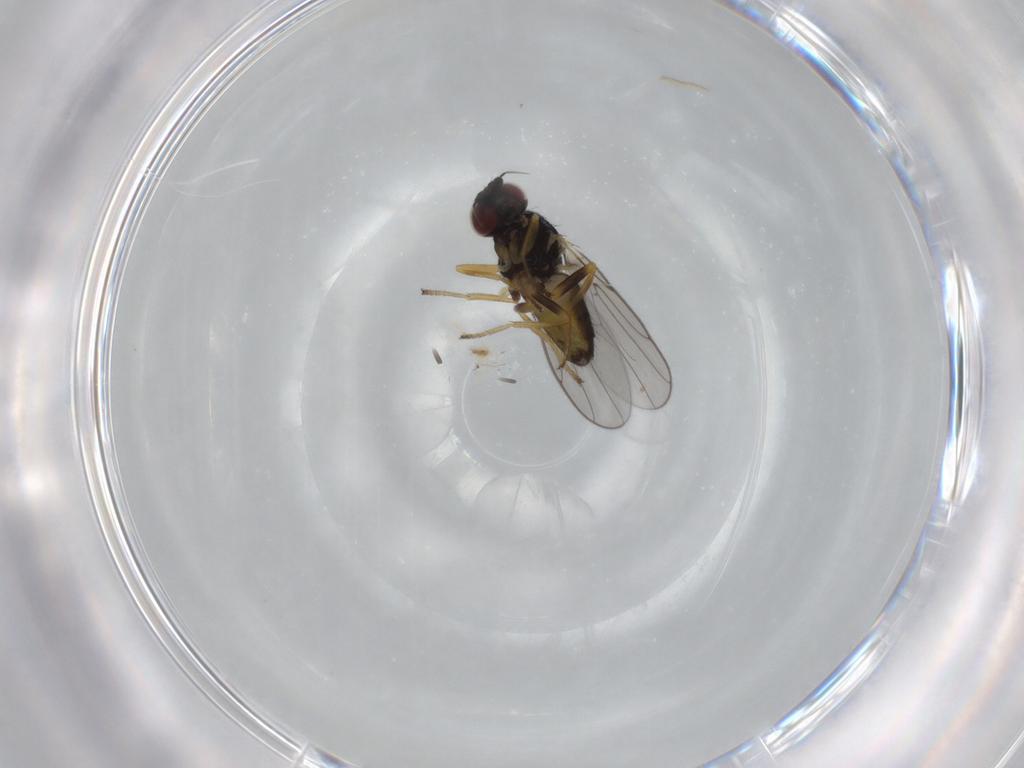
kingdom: Animalia
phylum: Arthropoda
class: Insecta
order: Diptera
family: Chloropidae
